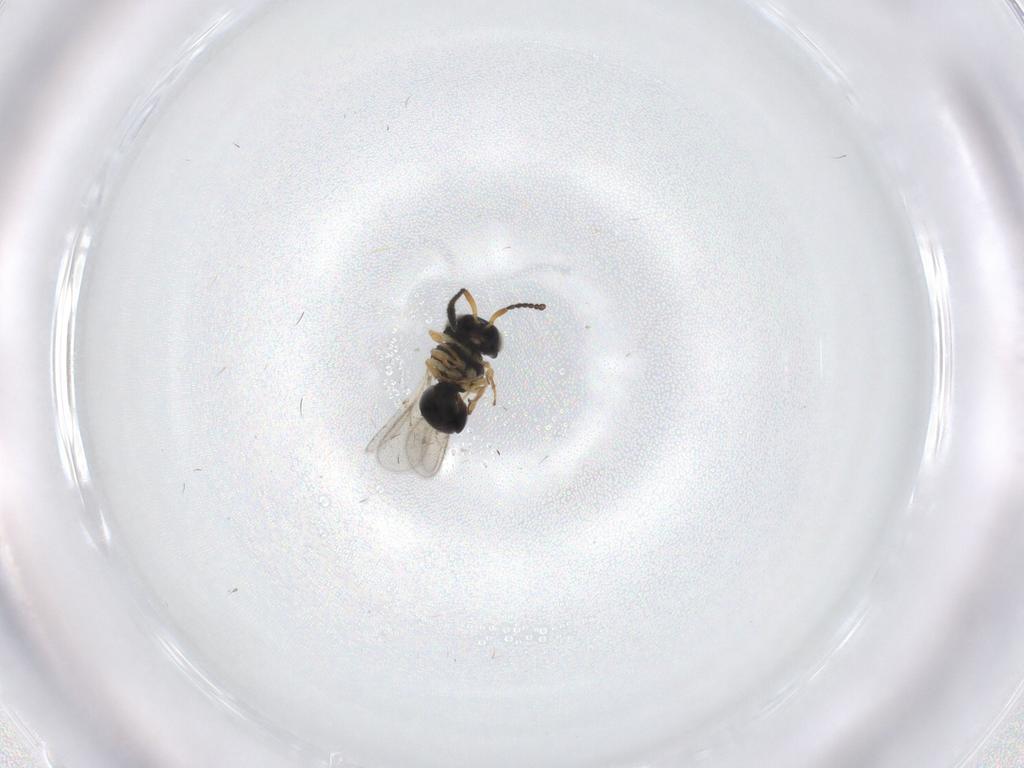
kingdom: Animalia
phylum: Arthropoda
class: Insecta
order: Hymenoptera
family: Scelionidae
